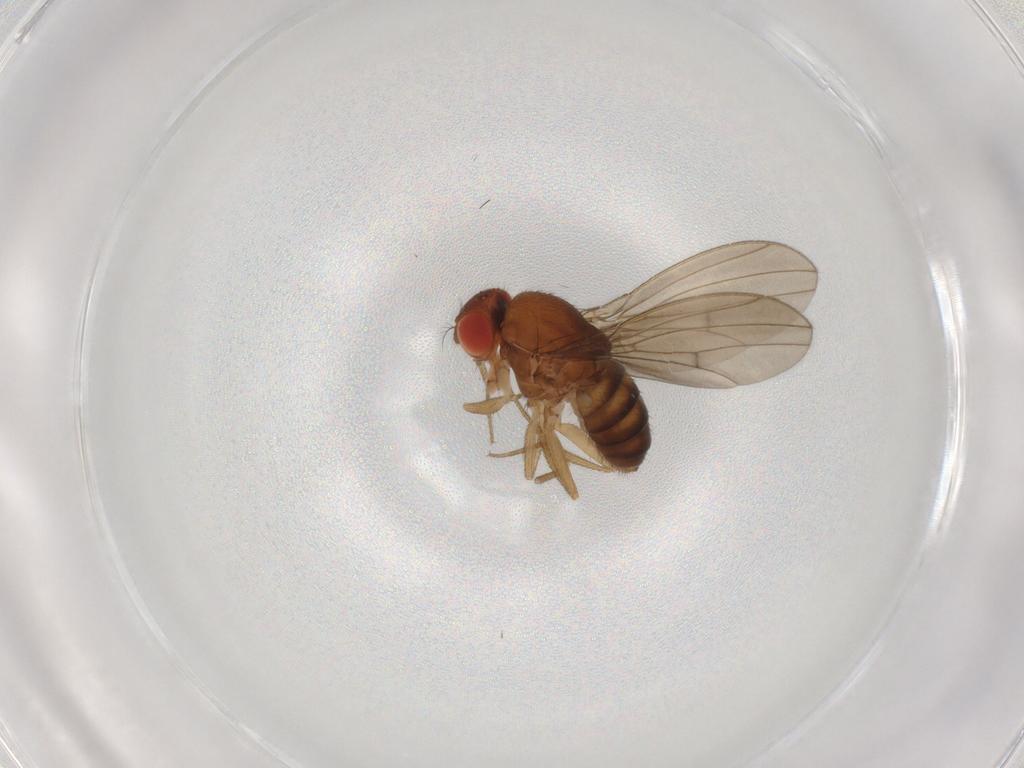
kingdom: Animalia
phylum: Arthropoda
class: Insecta
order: Diptera
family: Drosophilidae
